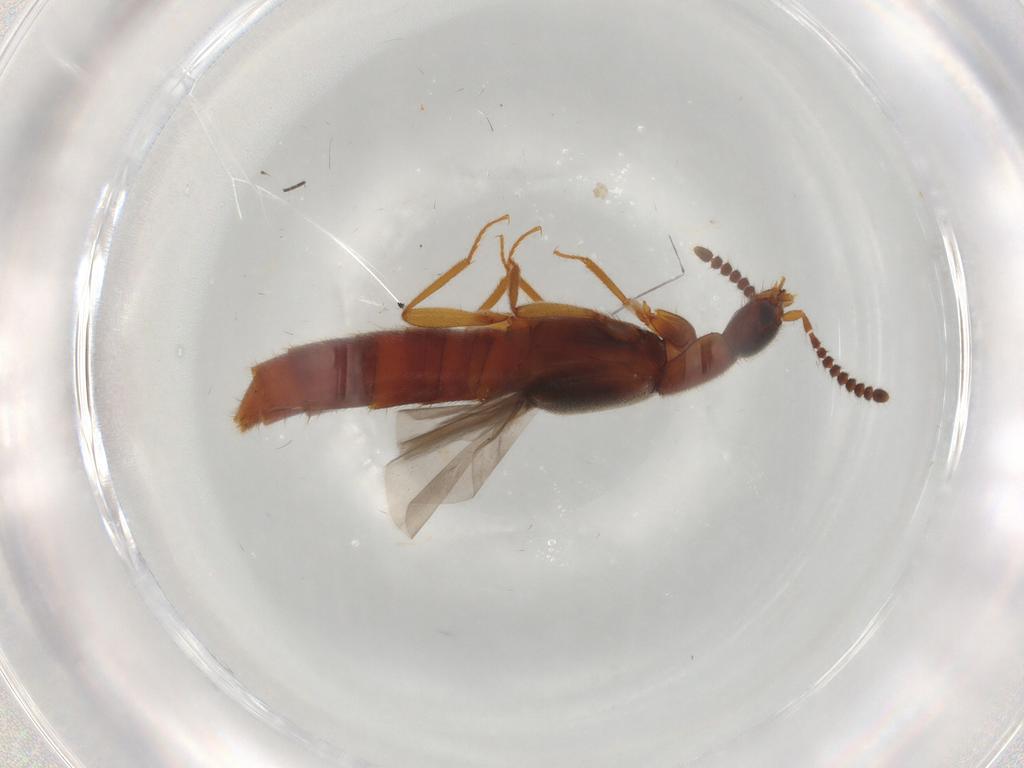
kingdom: Animalia
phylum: Arthropoda
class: Insecta
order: Coleoptera
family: Staphylinidae
